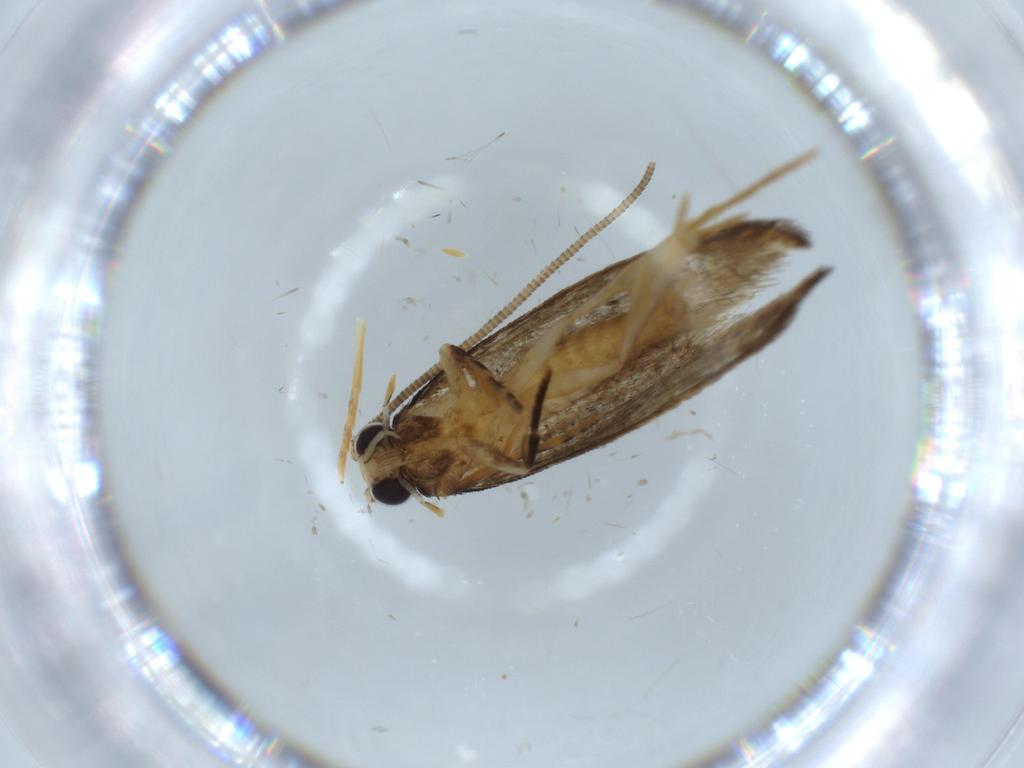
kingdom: Animalia
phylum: Arthropoda
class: Insecta
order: Lepidoptera
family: Tineidae
